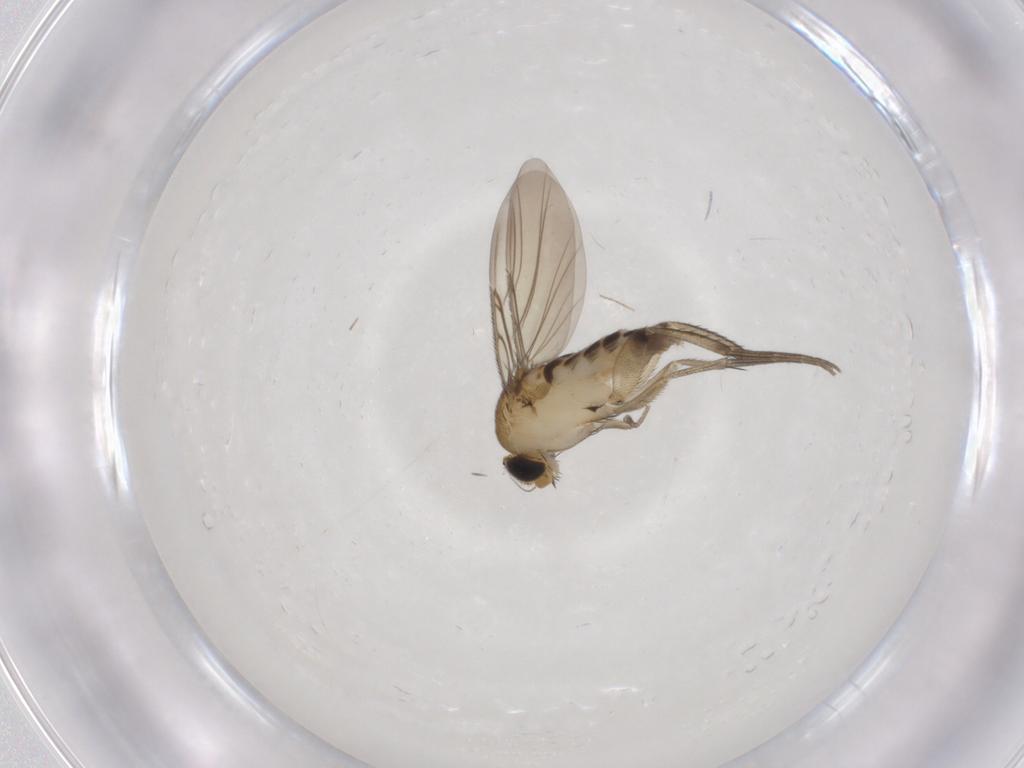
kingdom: Animalia
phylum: Arthropoda
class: Insecta
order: Diptera
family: Phoridae
